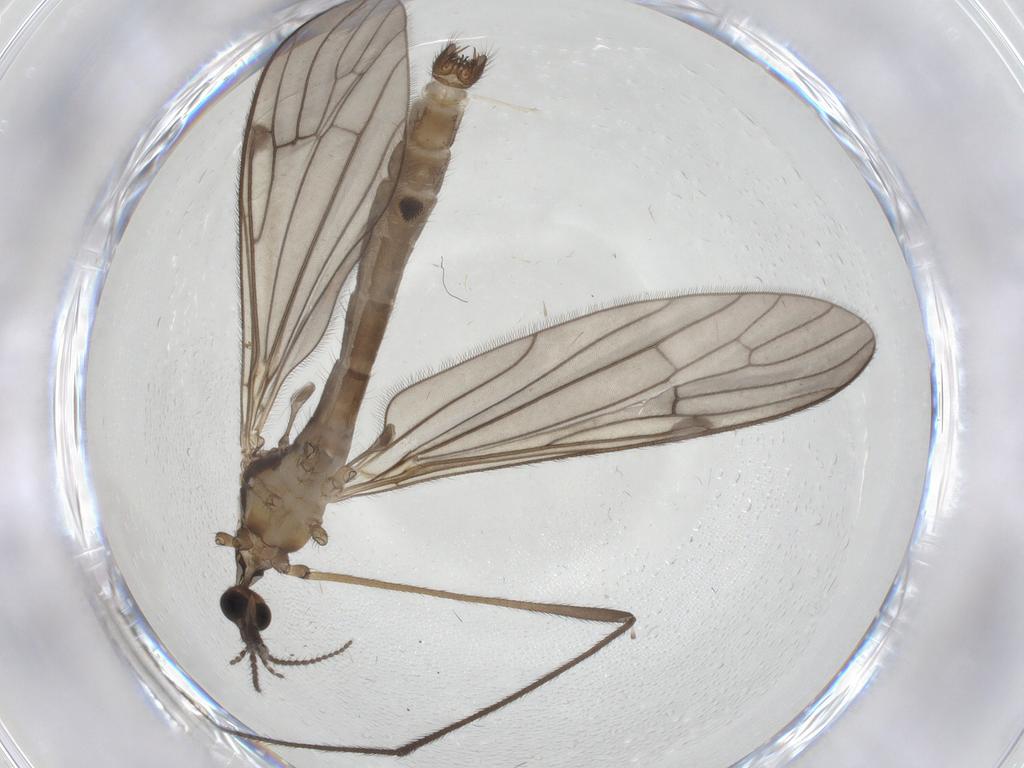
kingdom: Animalia
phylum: Arthropoda
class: Insecta
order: Diptera
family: Limoniidae
